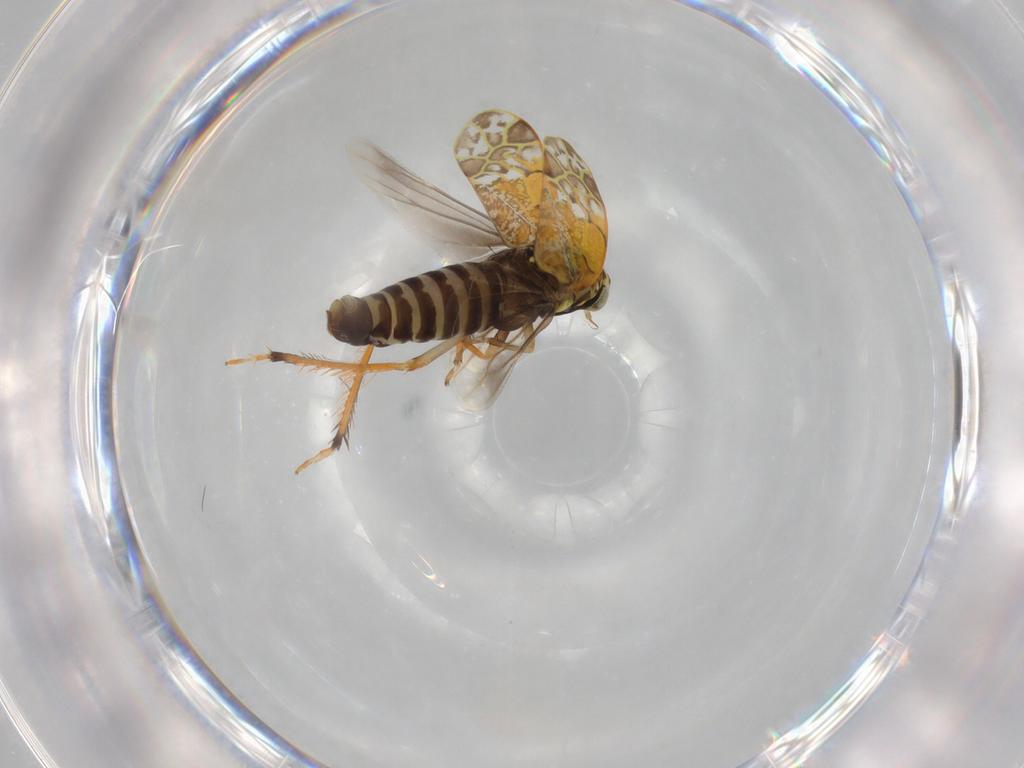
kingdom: Animalia
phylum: Arthropoda
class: Insecta
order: Hemiptera
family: Cicadellidae
